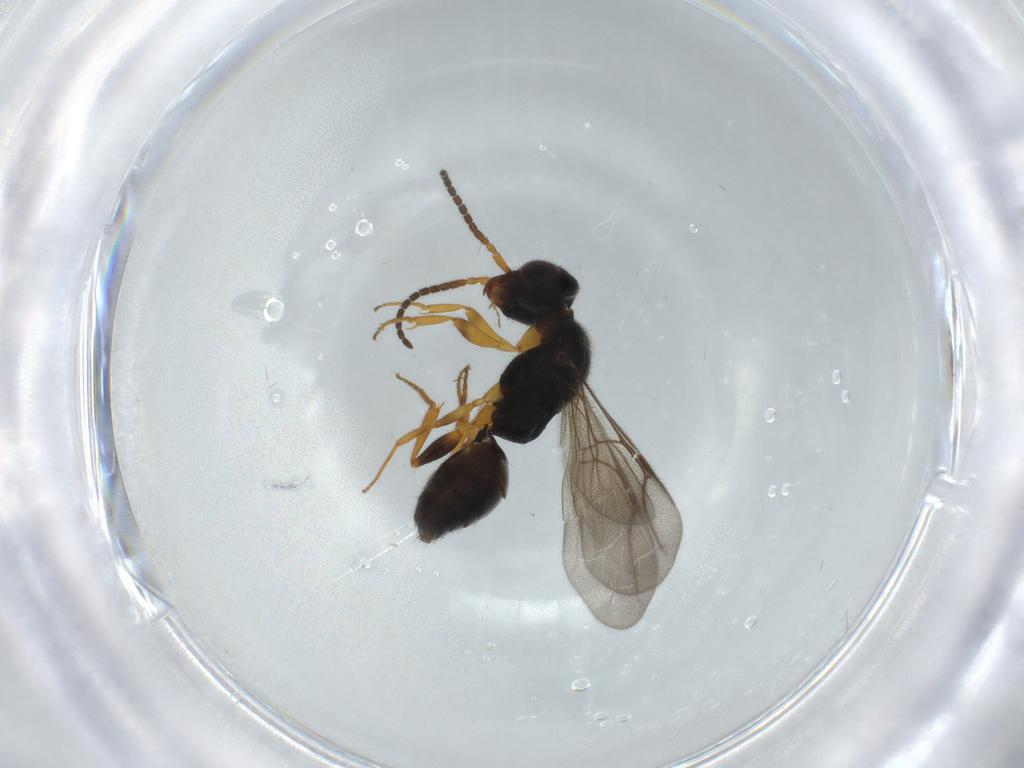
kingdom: Animalia
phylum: Arthropoda
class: Insecta
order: Hymenoptera
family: Bethylidae
